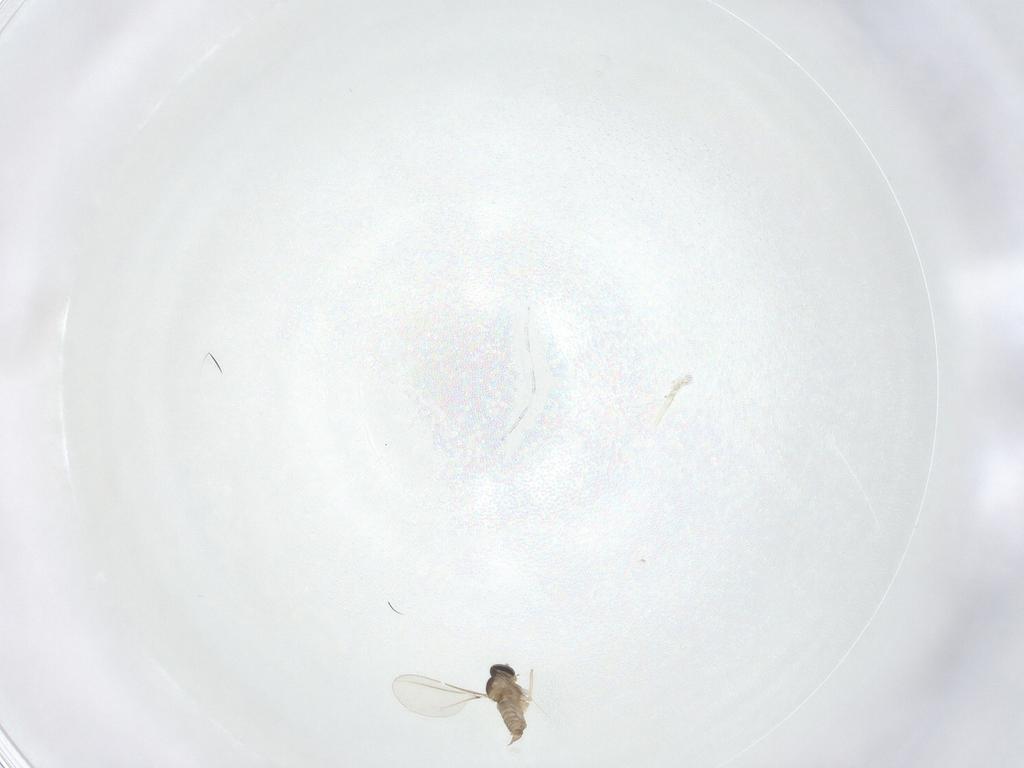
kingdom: Animalia
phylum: Arthropoda
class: Insecta
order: Diptera
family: Cecidomyiidae
